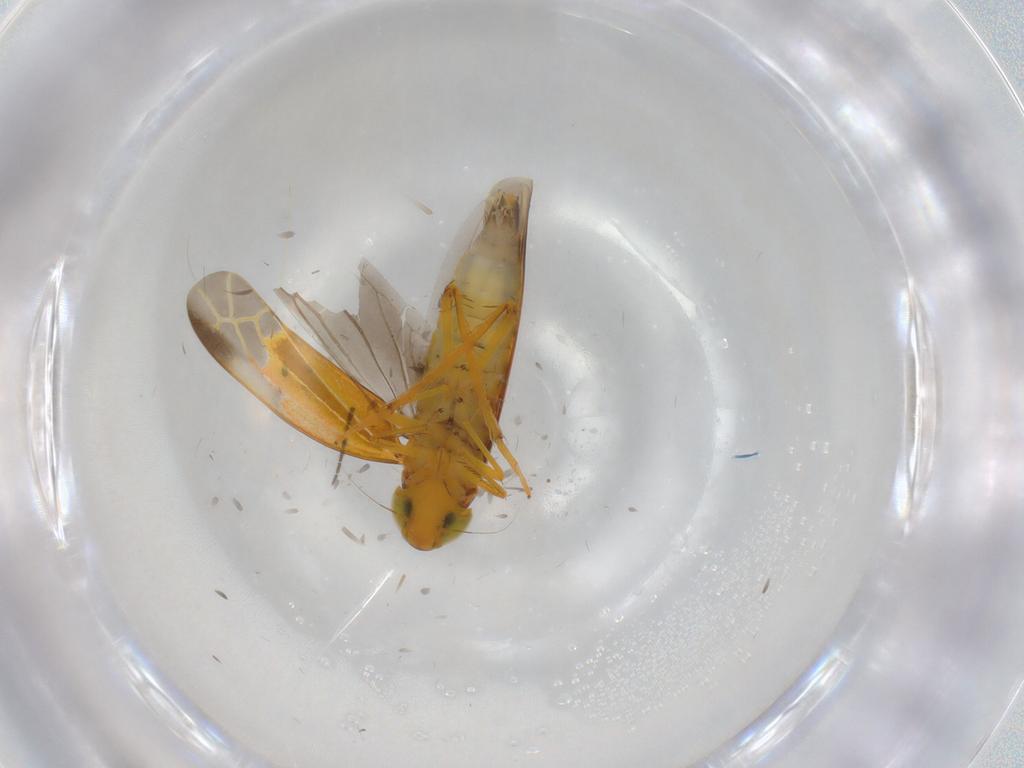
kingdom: Animalia
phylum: Arthropoda
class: Insecta
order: Hemiptera
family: Cicadellidae
